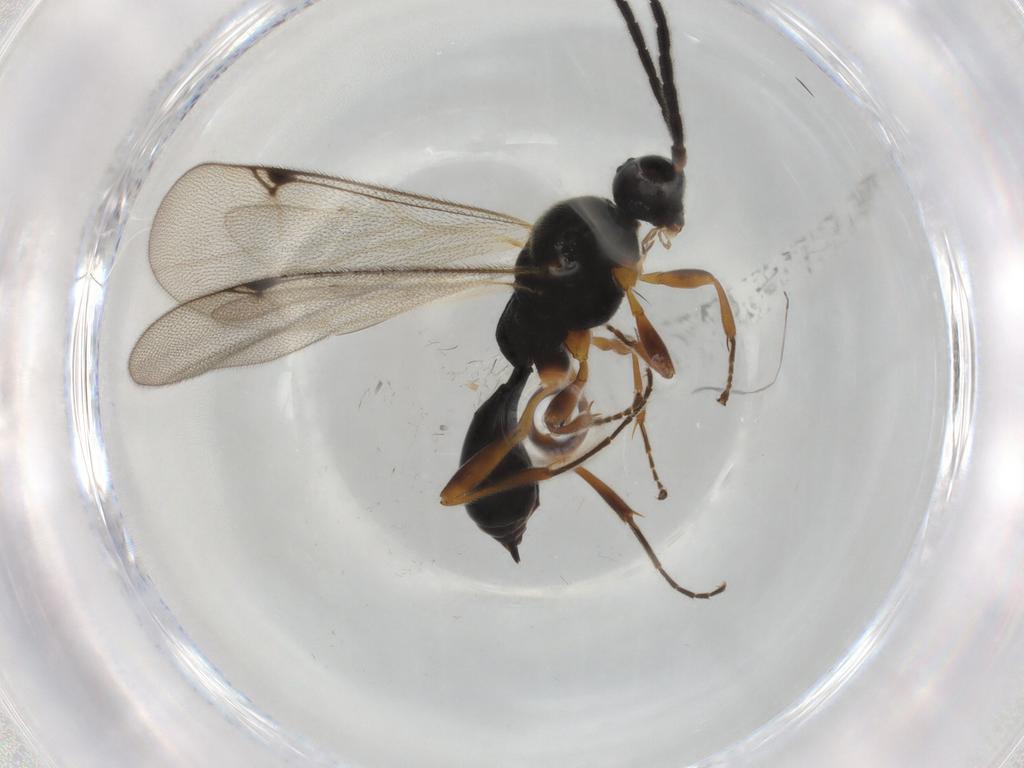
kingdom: Animalia
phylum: Arthropoda
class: Insecta
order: Hymenoptera
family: Proctotrupidae
